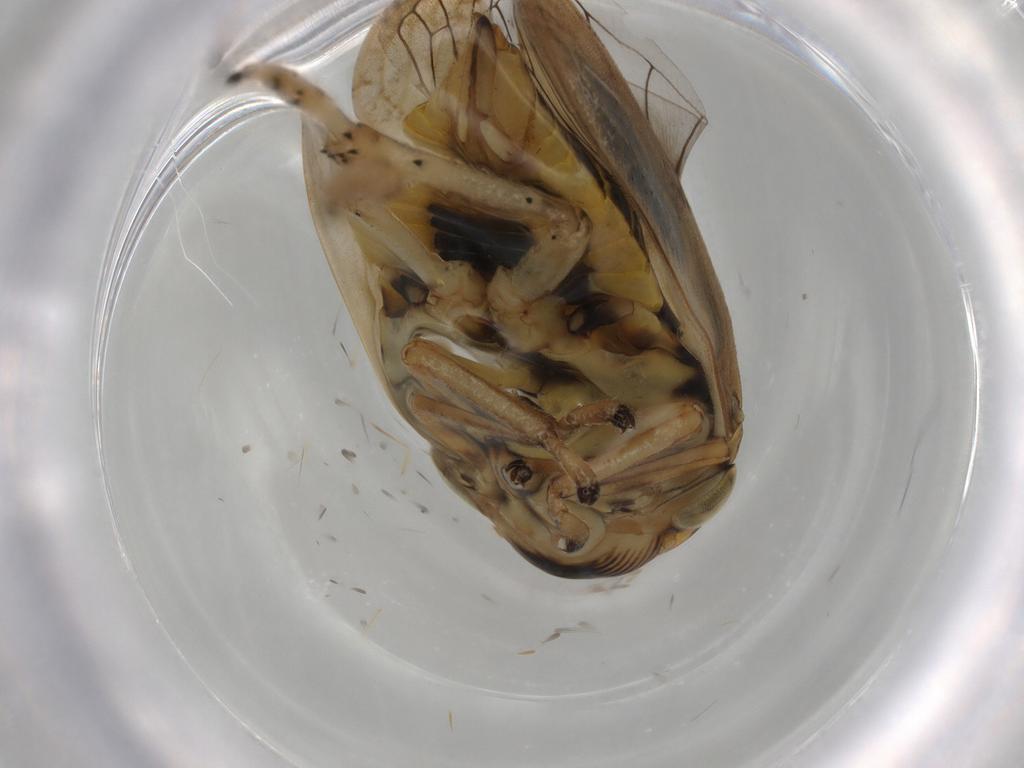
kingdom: Animalia
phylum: Arthropoda
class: Insecta
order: Hemiptera
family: Aphrophoridae
